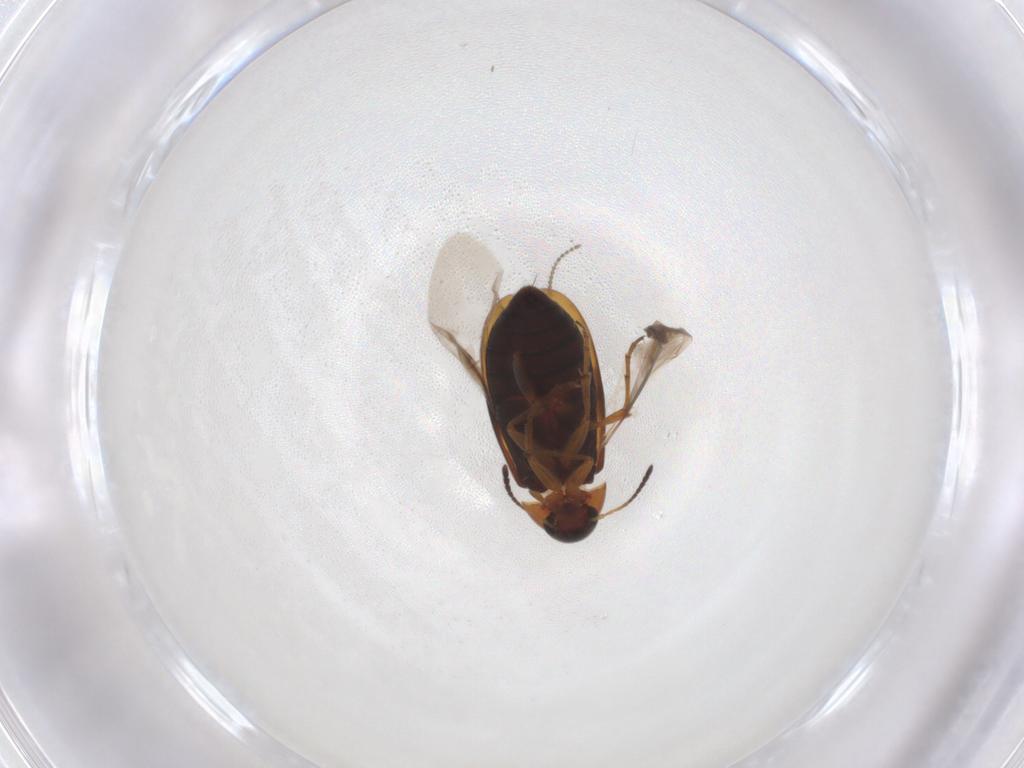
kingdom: Animalia
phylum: Arthropoda
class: Insecta
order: Coleoptera
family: Scraptiidae
